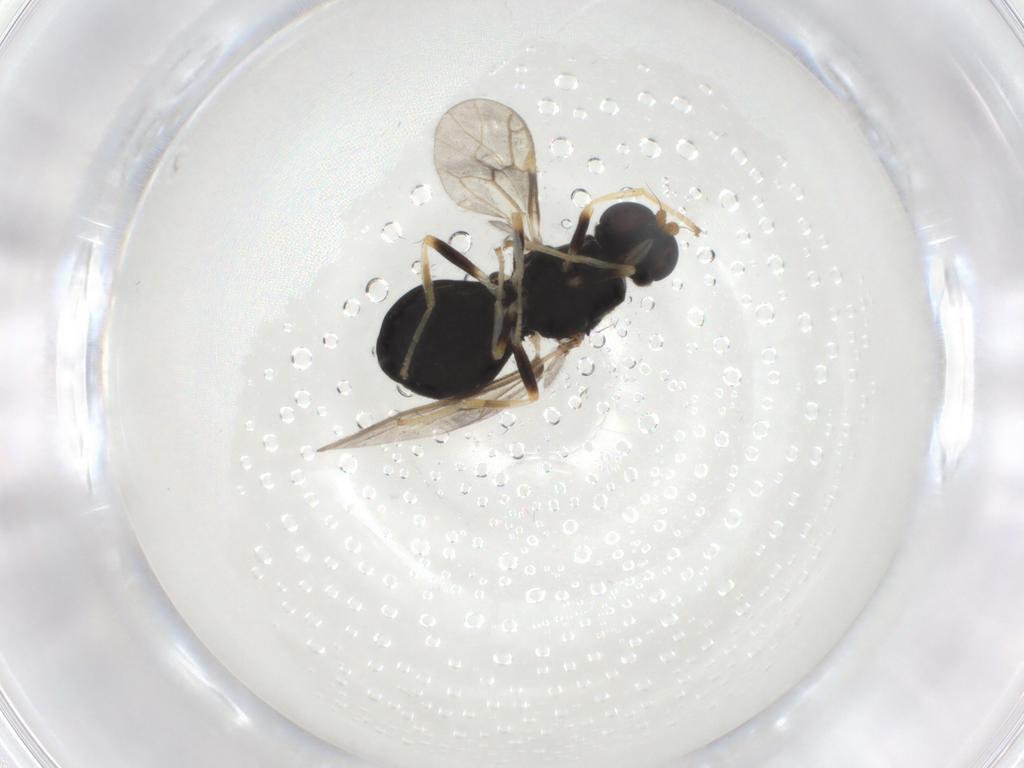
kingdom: Animalia
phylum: Arthropoda
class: Insecta
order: Diptera
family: Stratiomyidae
